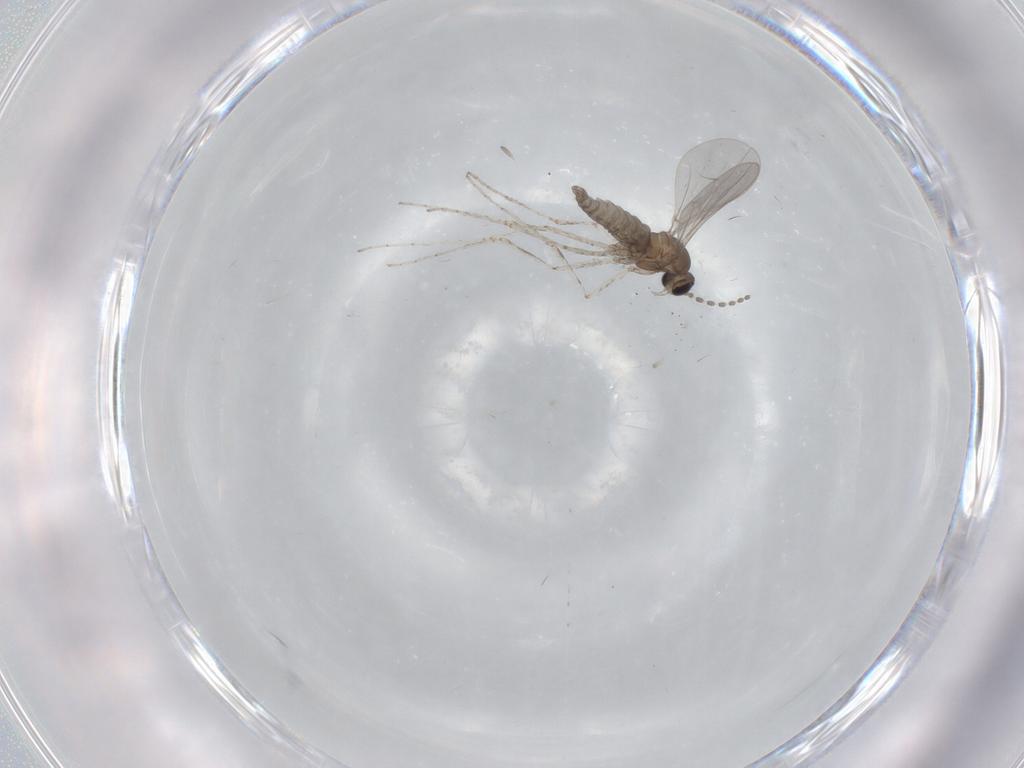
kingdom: Animalia
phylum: Arthropoda
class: Insecta
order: Diptera
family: Cecidomyiidae
